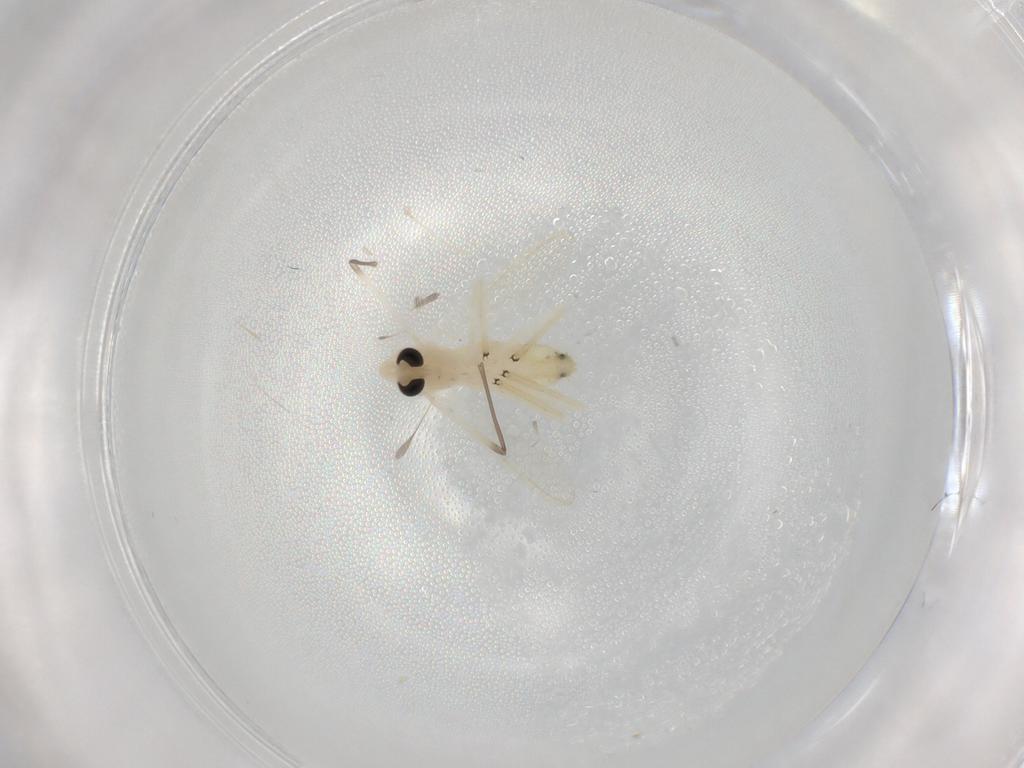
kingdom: Animalia
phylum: Arthropoda
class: Insecta
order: Diptera
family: Chironomidae
